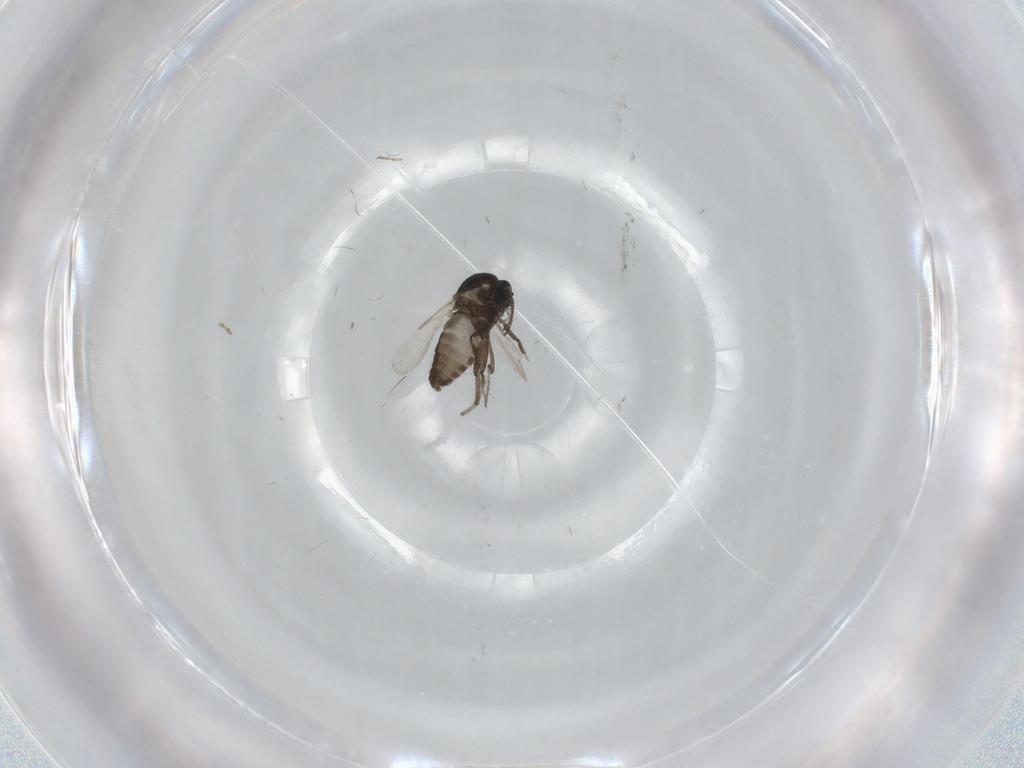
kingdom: Animalia
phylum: Arthropoda
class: Insecta
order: Diptera
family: Ceratopogonidae
